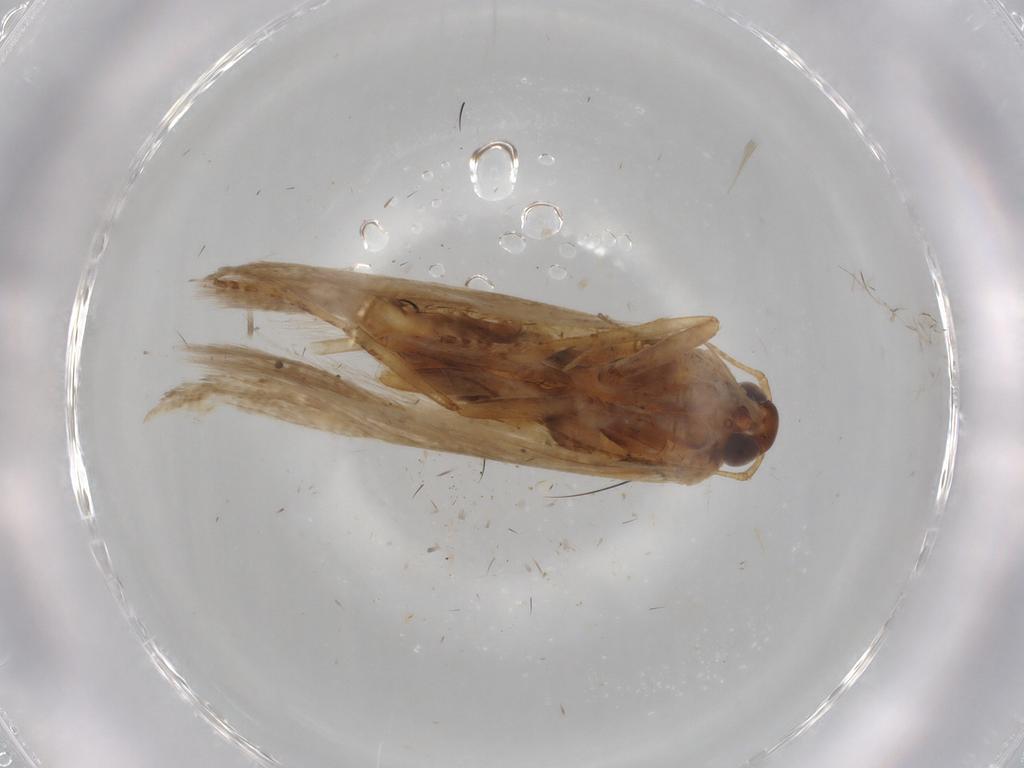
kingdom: Animalia
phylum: Arthropoda
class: Insecta
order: Lepidoptera
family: Gelechiidae
